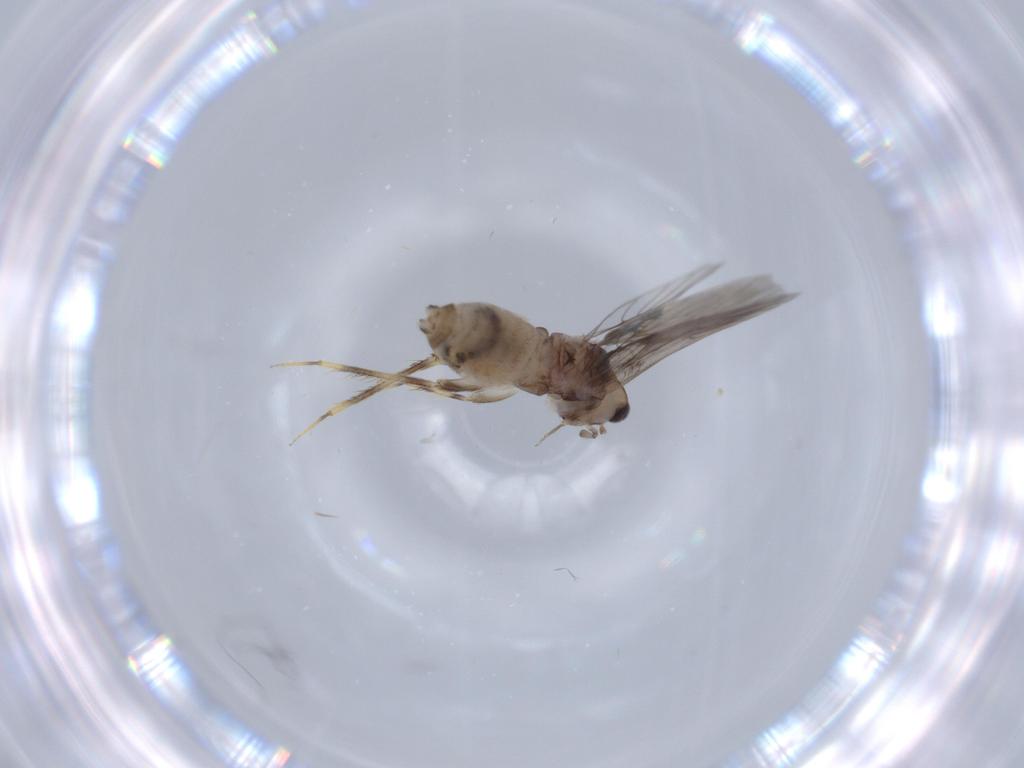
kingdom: Animalia
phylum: Arthropoda
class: Insecta
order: Psocodea
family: Lepidopsocidae
